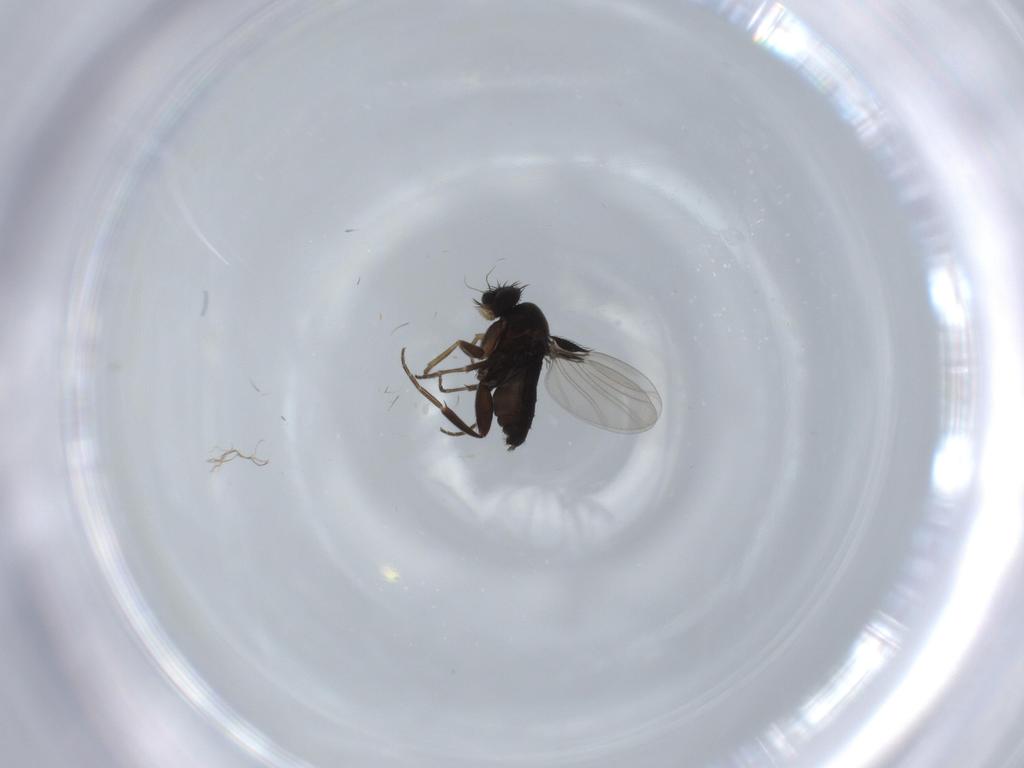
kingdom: Animalia
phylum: Arthropoda
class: Insecta
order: Diptera
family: Phoridae
